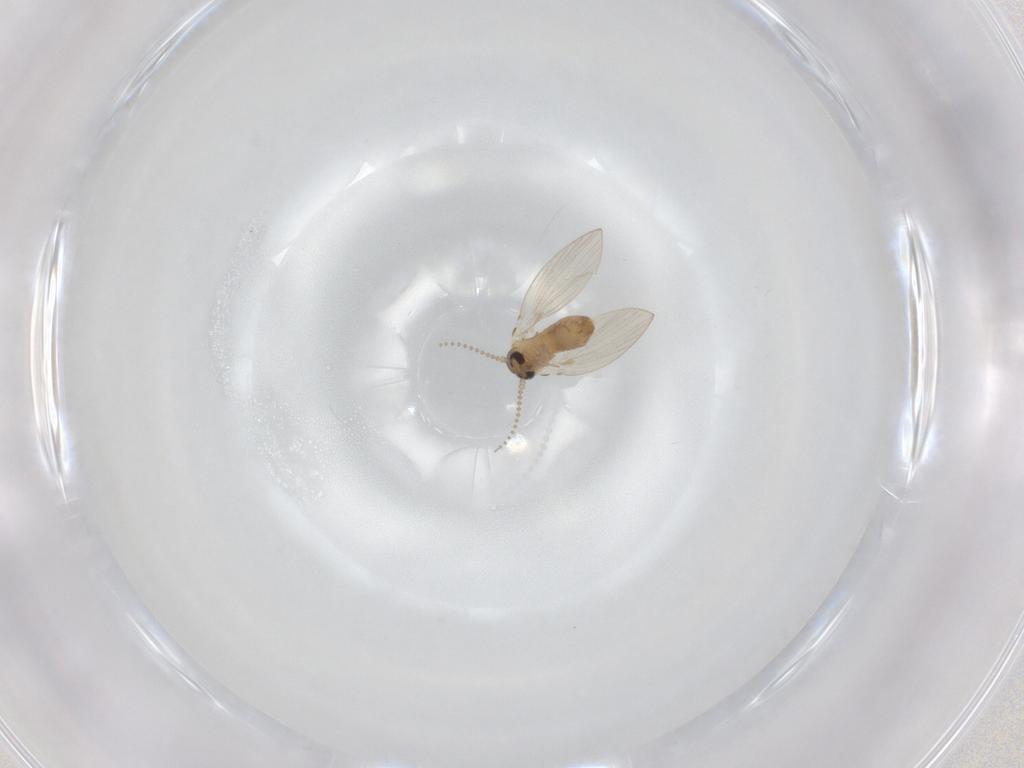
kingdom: Animalia
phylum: Arthropoda
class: Insecta
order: Diptera
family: Psychodidae
